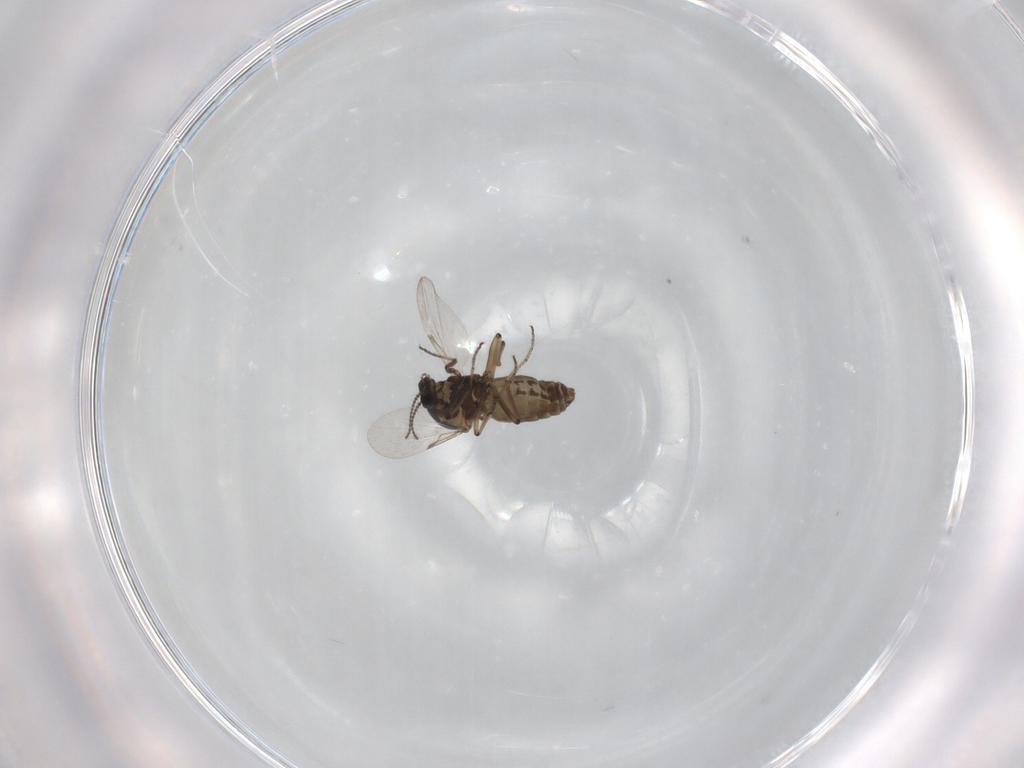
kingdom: Animalia
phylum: Arthropoda
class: Insecta
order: Diptera
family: Ceratopogonidae
